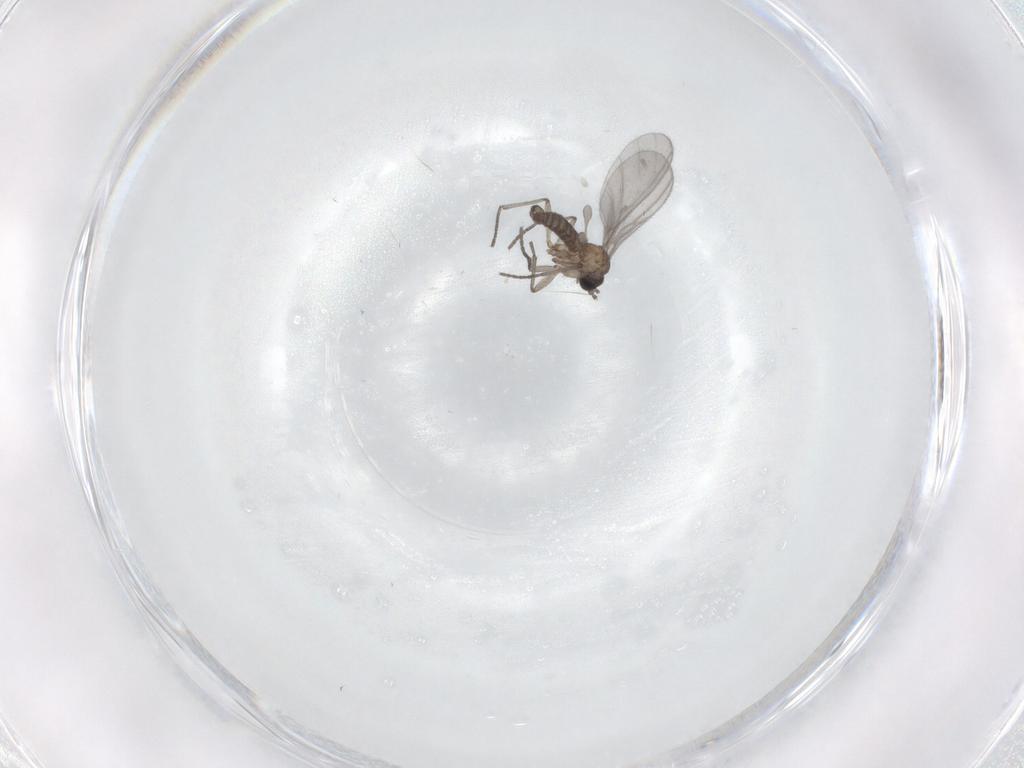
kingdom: Animalia
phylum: Arthropoda
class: Insecta
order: Diptera
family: Sciaridae
